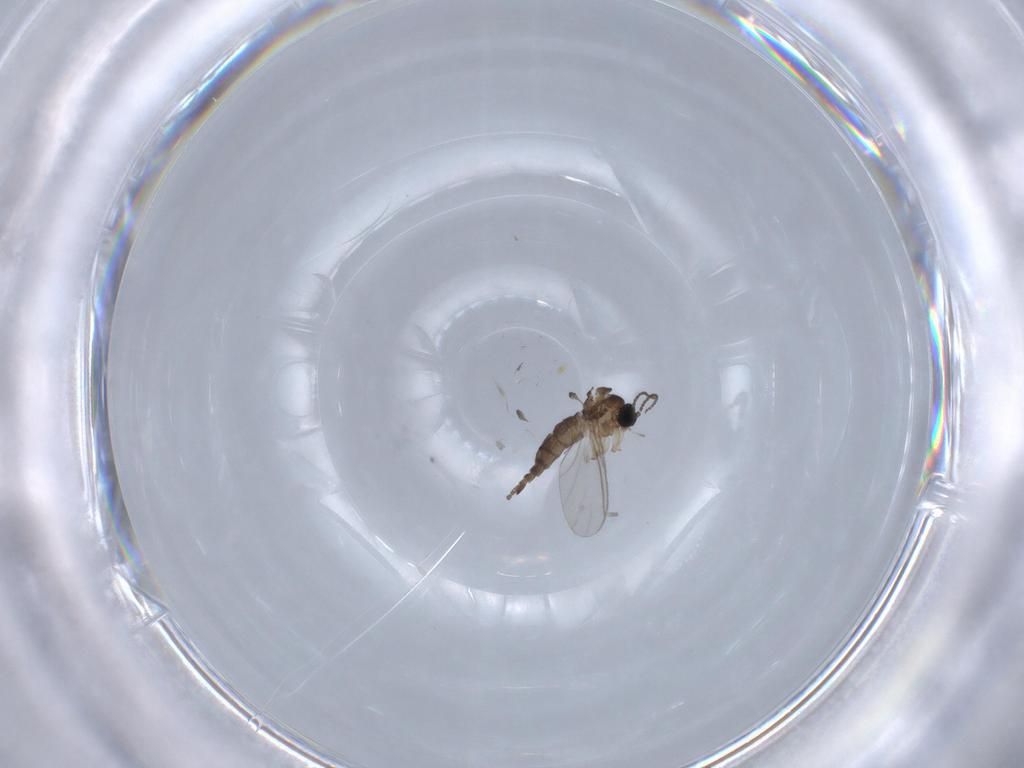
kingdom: Animalia
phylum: Arthropoda
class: Insecta
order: Diptera
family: Sciaridae
